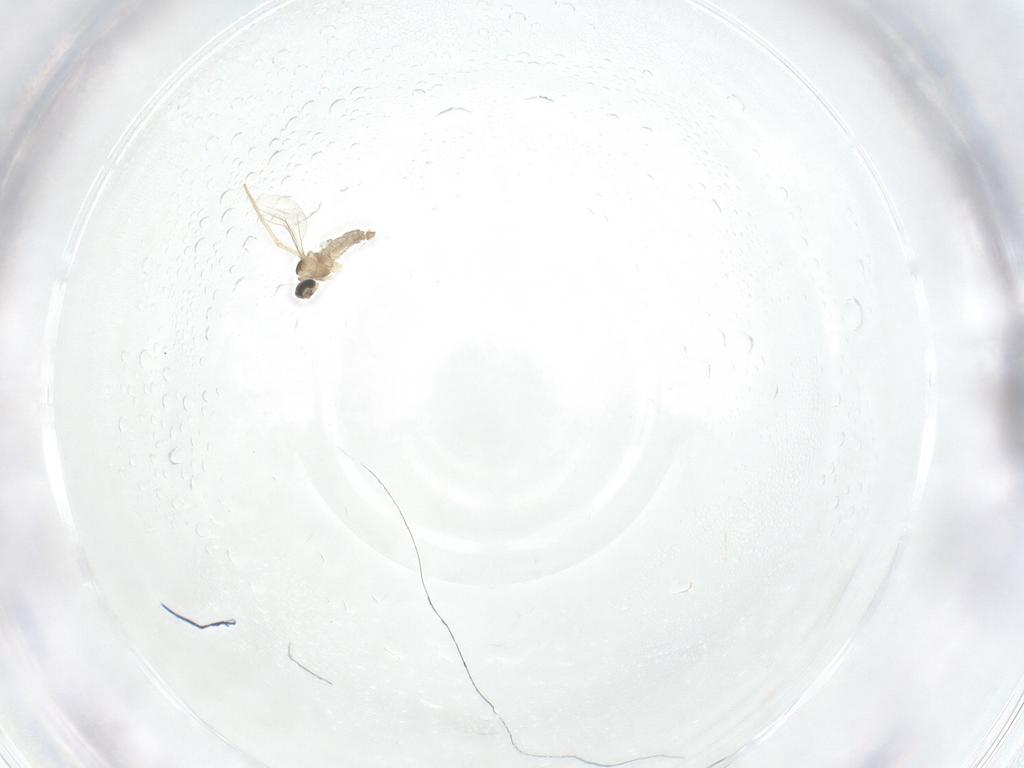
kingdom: Animalia
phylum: Arthropoda
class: Insecta
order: Diptera
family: Cecidomyiidae
